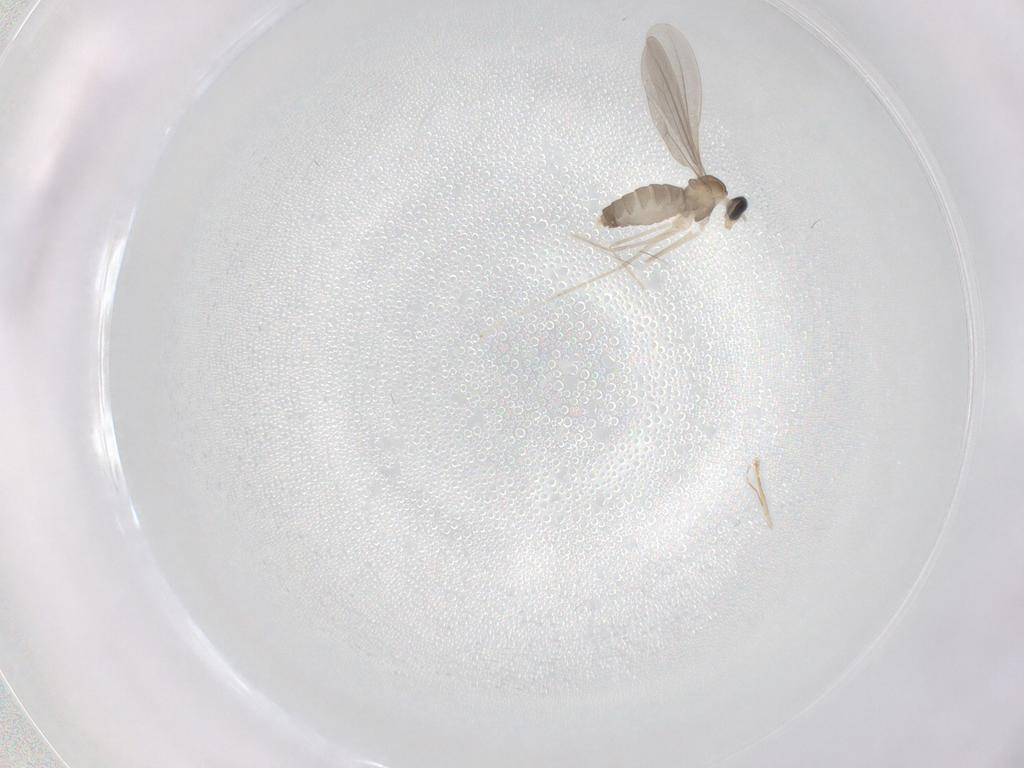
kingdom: Animalia
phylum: Arthropoda
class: Insecta
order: Diptera
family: Cecidomyiidae
